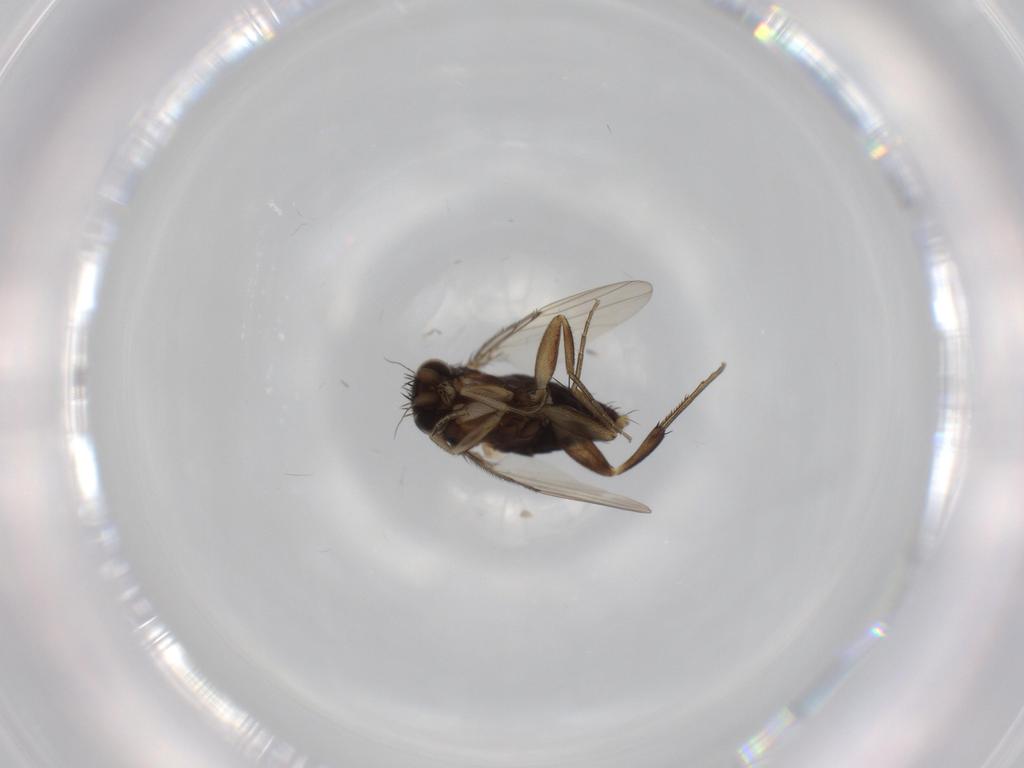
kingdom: Animalia
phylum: Arthropoda
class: Insecta
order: Diptera
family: Phoridae
